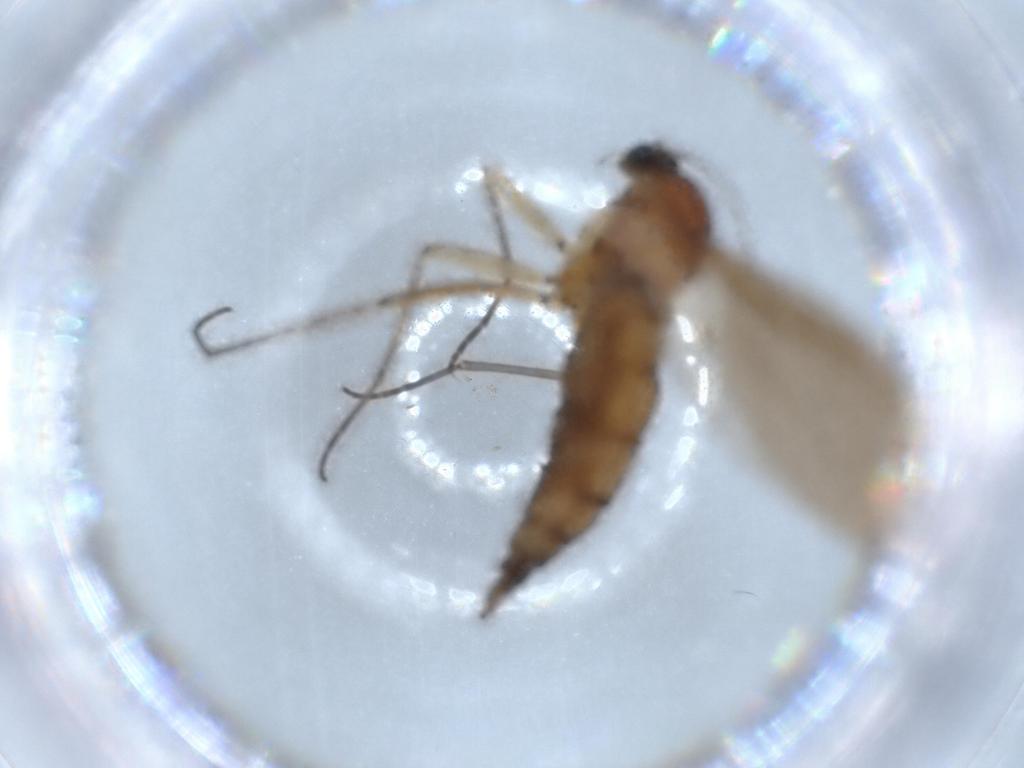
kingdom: Animalia
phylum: Arthropoda
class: Insecta
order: Diptera
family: Sciaridae
